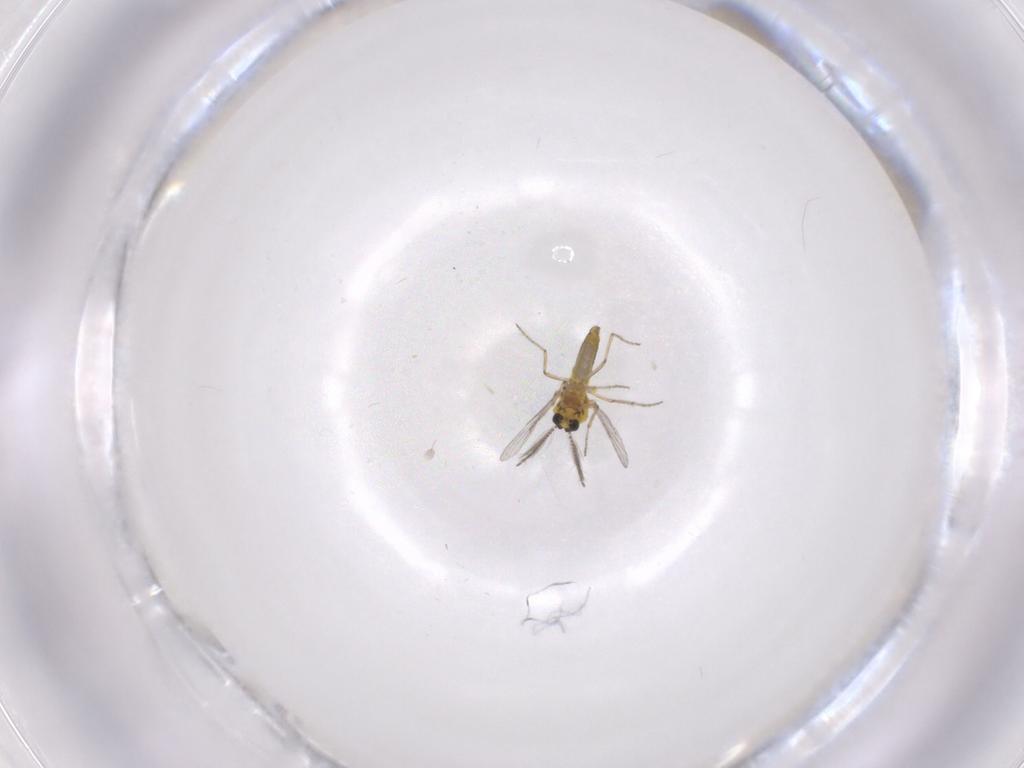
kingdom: Animalia
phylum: Arthropoda
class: Insecta
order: Diptera
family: Ceratopogonidae
